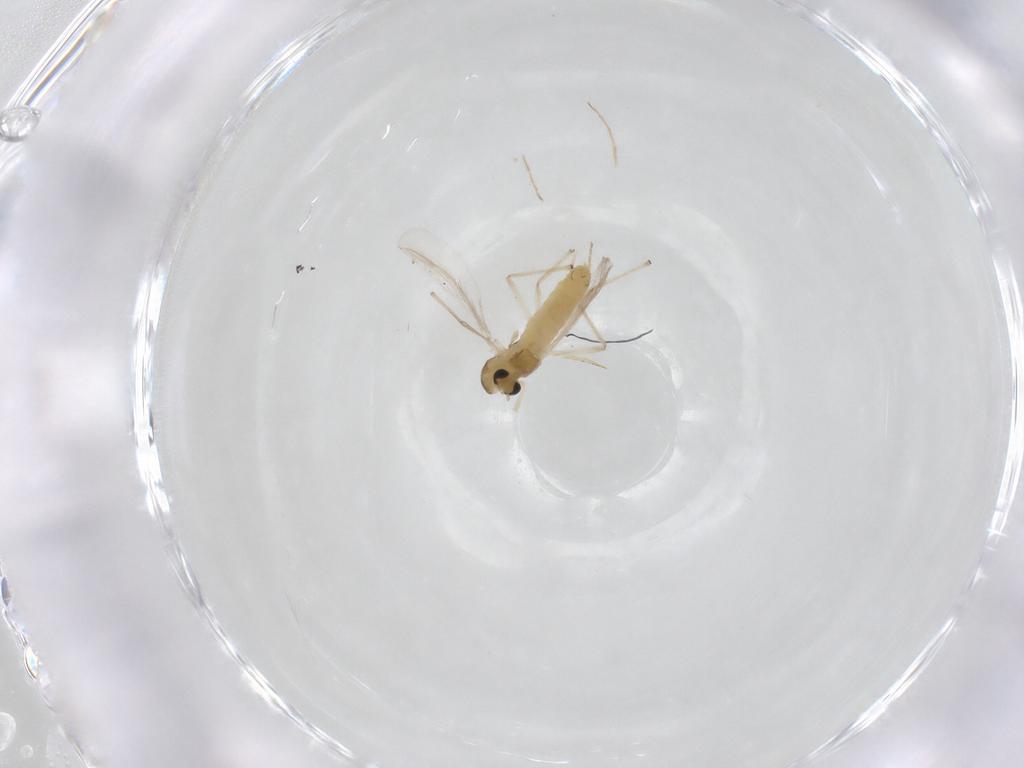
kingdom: Animalia
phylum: Arthropoda
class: Insecta
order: Diptera
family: Chironomidae
